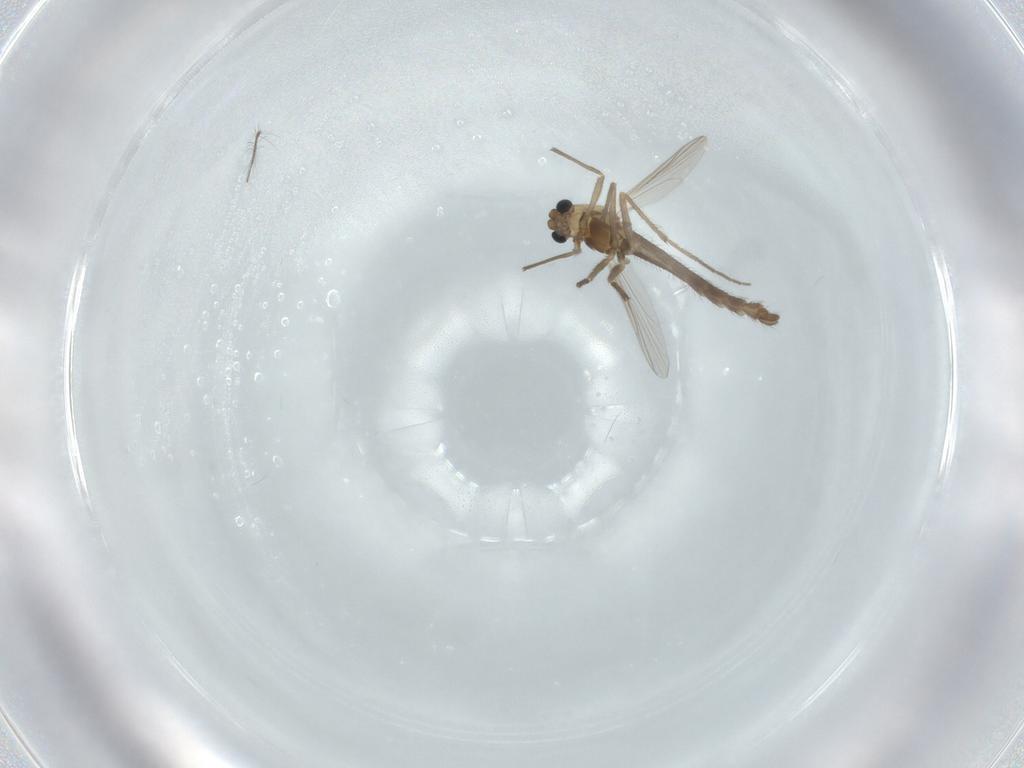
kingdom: Animalia
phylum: Arthropoda
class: Insecta
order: Diptera
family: Chironomidae
